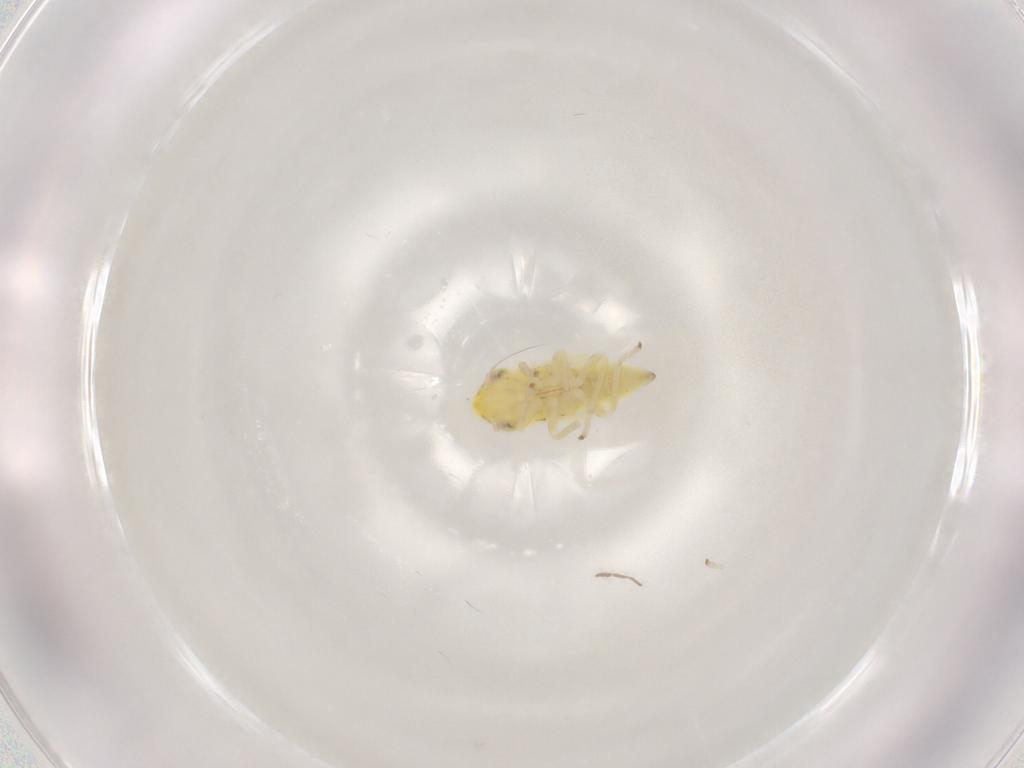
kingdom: Animalia
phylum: Arthropoda
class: Insecta
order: Hemiptera
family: Cicadellidae
